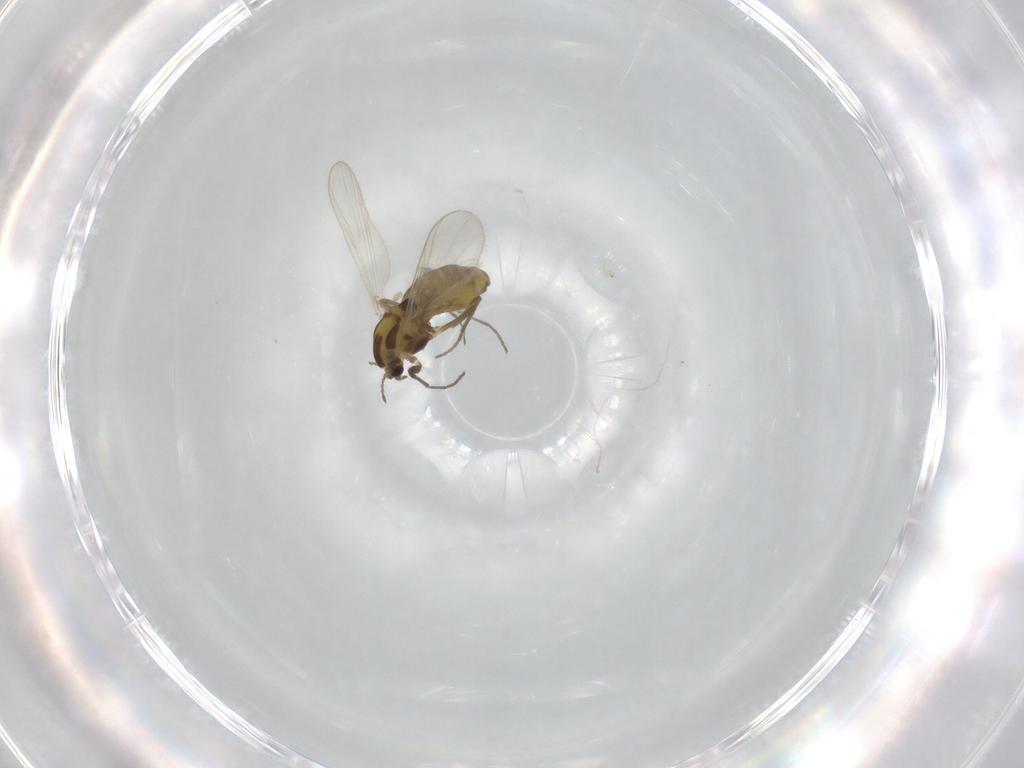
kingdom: Animalia
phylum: Arthropoda
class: Insecta
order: Diptera
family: Chironomidae
